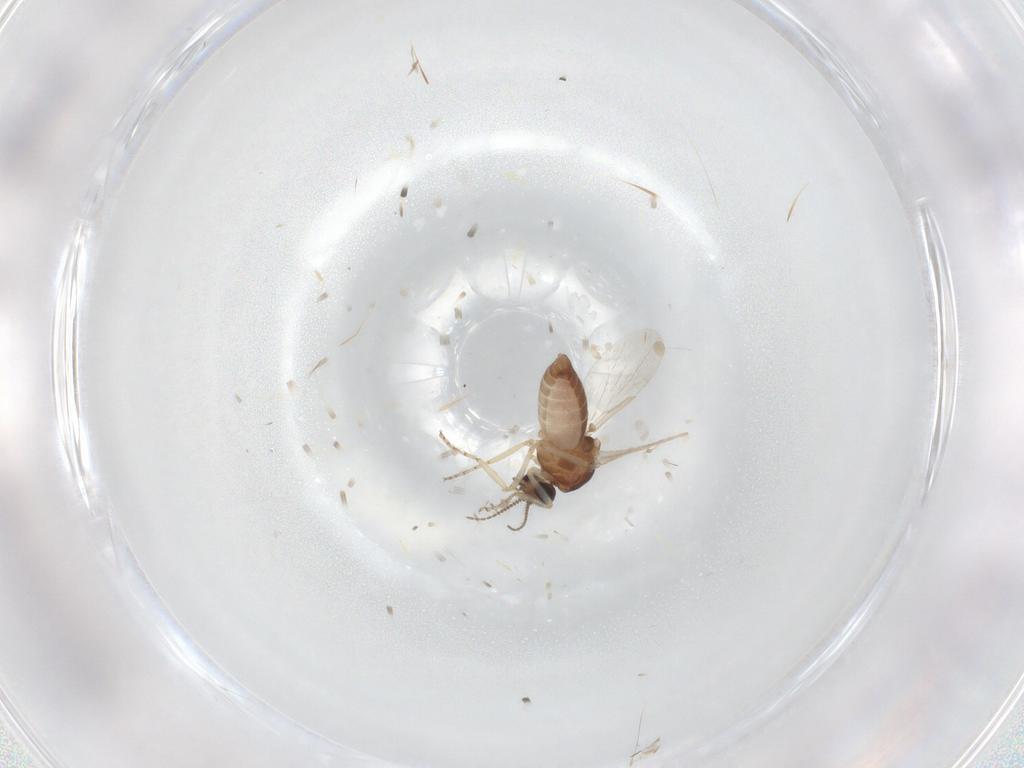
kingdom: Animalia
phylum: Arthropoda
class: Insecta
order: Diptera
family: Ceratopogonidae
